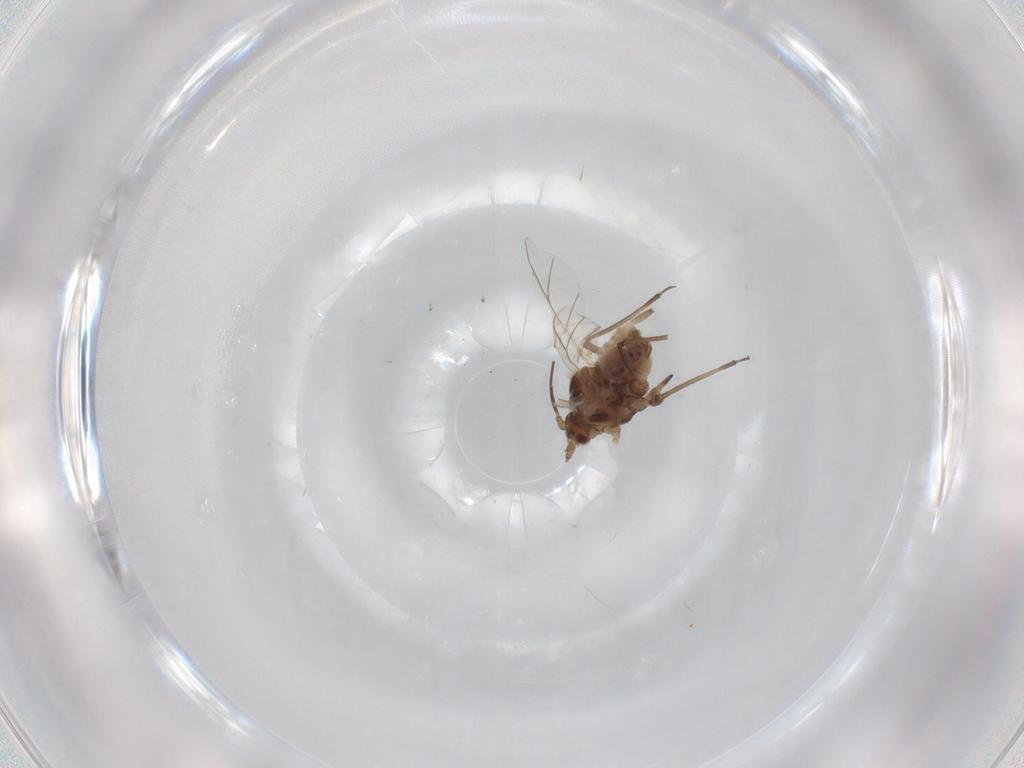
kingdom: Animalia
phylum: Arthropoda
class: Insecta
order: Hemiptera
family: Aphididae
